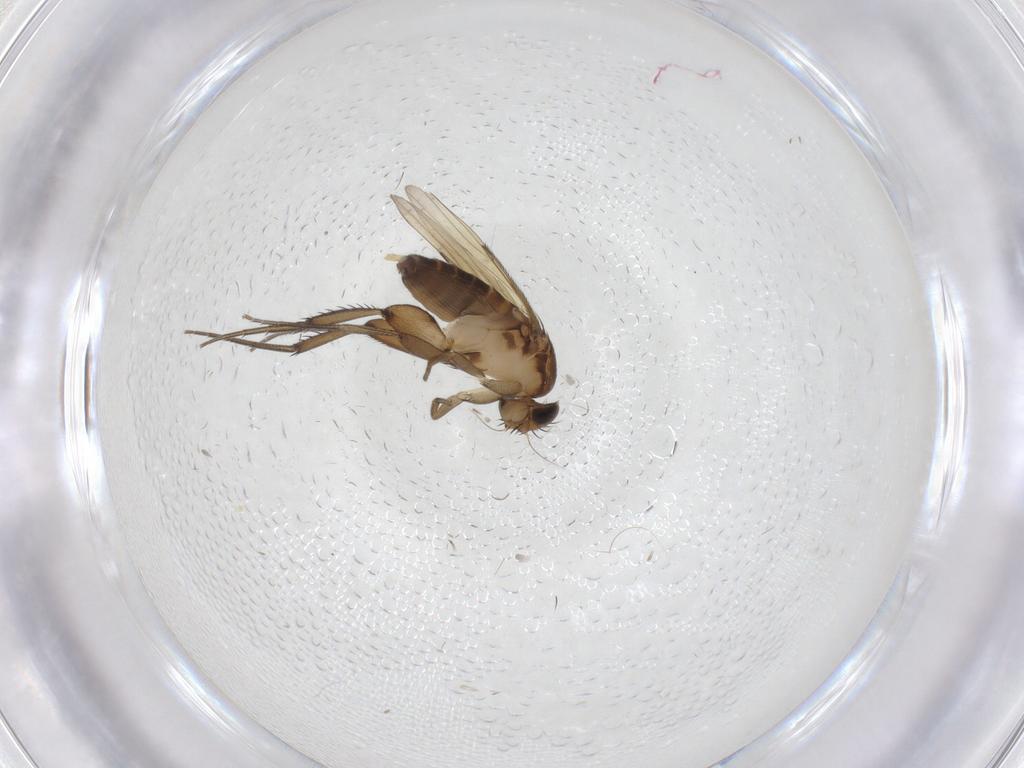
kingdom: Animalia
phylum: Arthropoda
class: Insecta
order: Diptera
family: Phoridae
